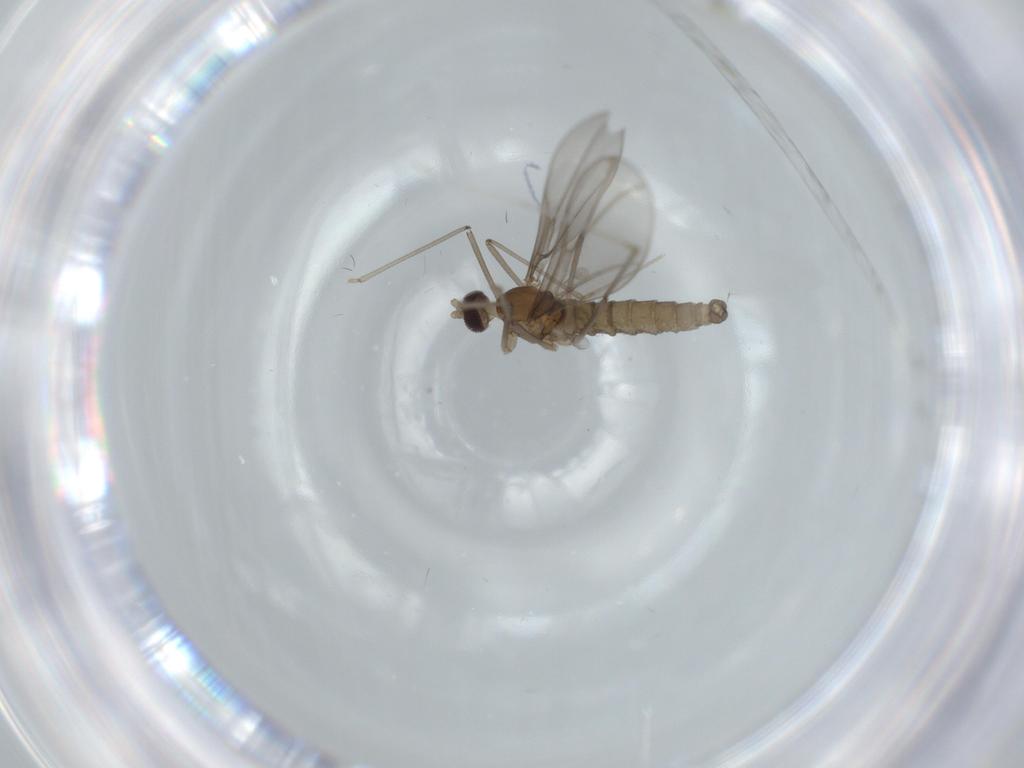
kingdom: Animalia
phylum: Arthropoda
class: Insecta
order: Diptera
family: Cecidomyiidae
